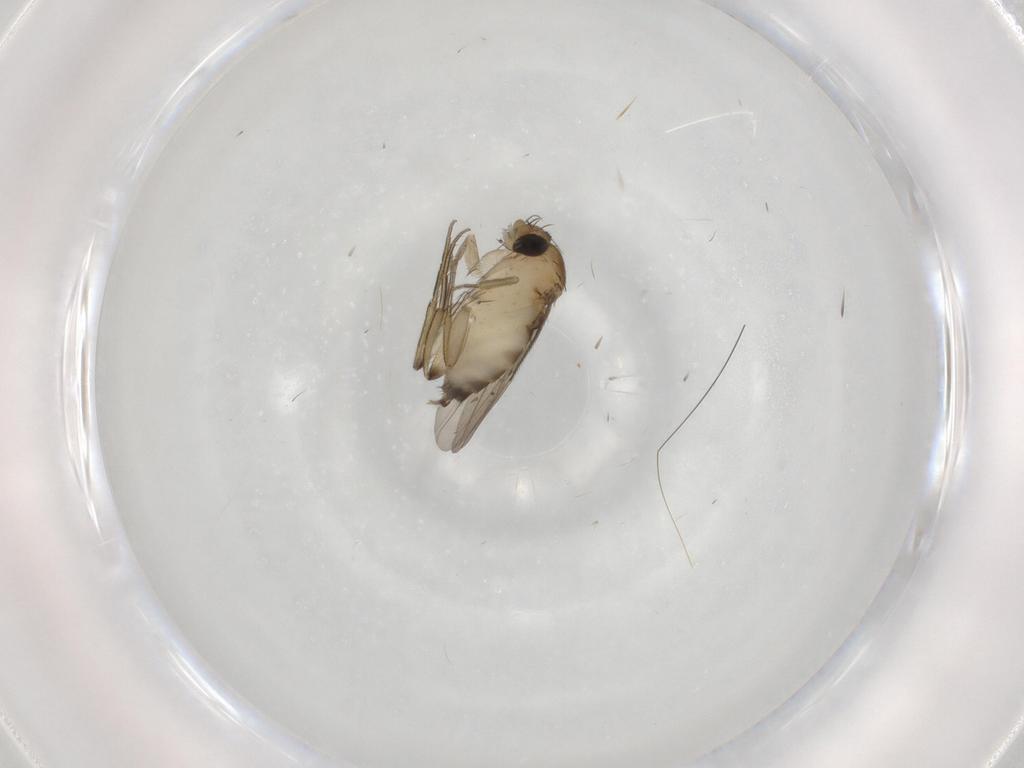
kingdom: Animalia
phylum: Arthropoda
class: Insecta
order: Diptera
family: Phoridae
